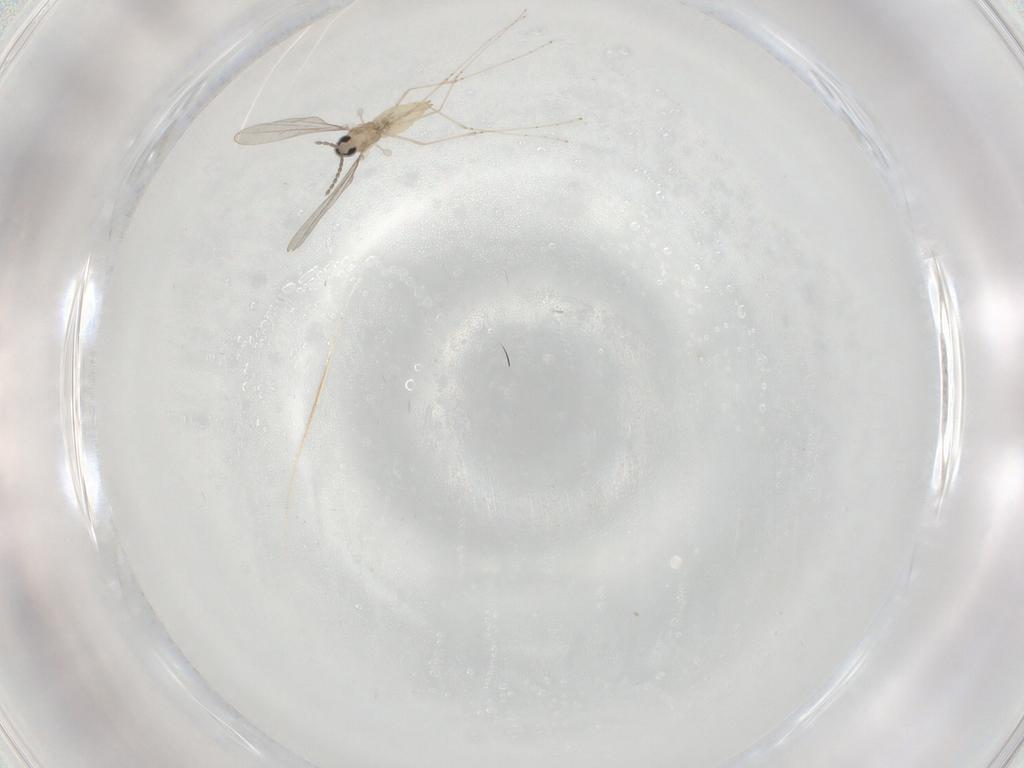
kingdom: Animalia
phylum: Arthropoda
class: Insecta
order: Diptera
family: Cecidomyiidae
